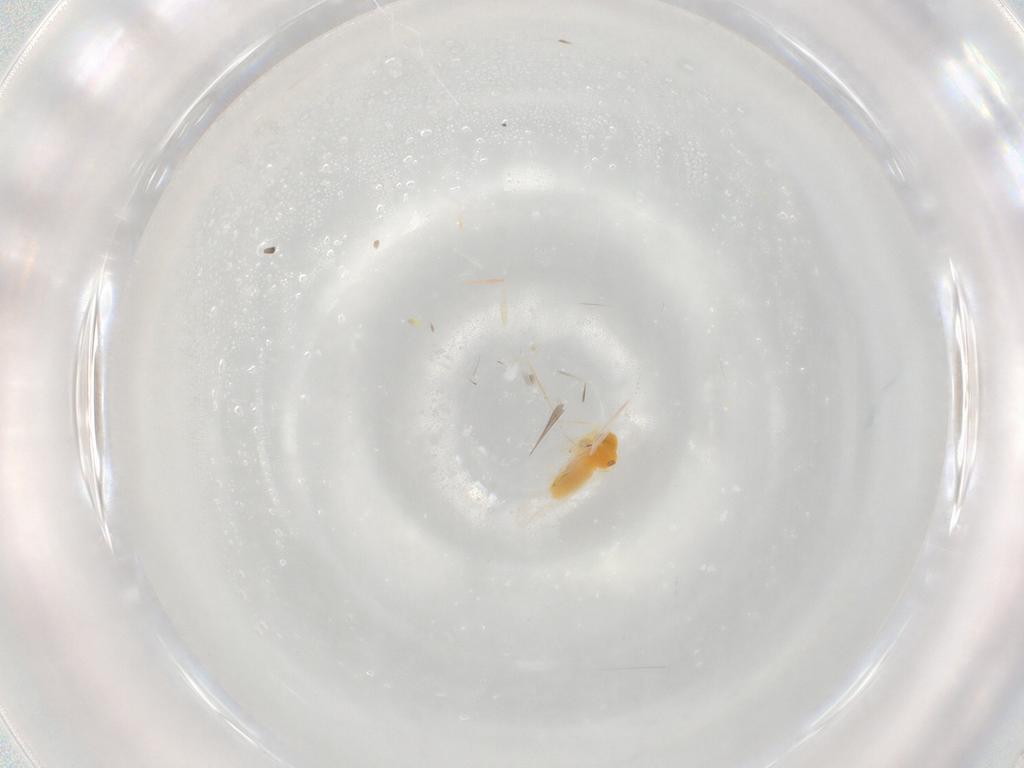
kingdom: Animalia
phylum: Arthropoda
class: Insecta
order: Hemiptera
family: Aleyrodidae
